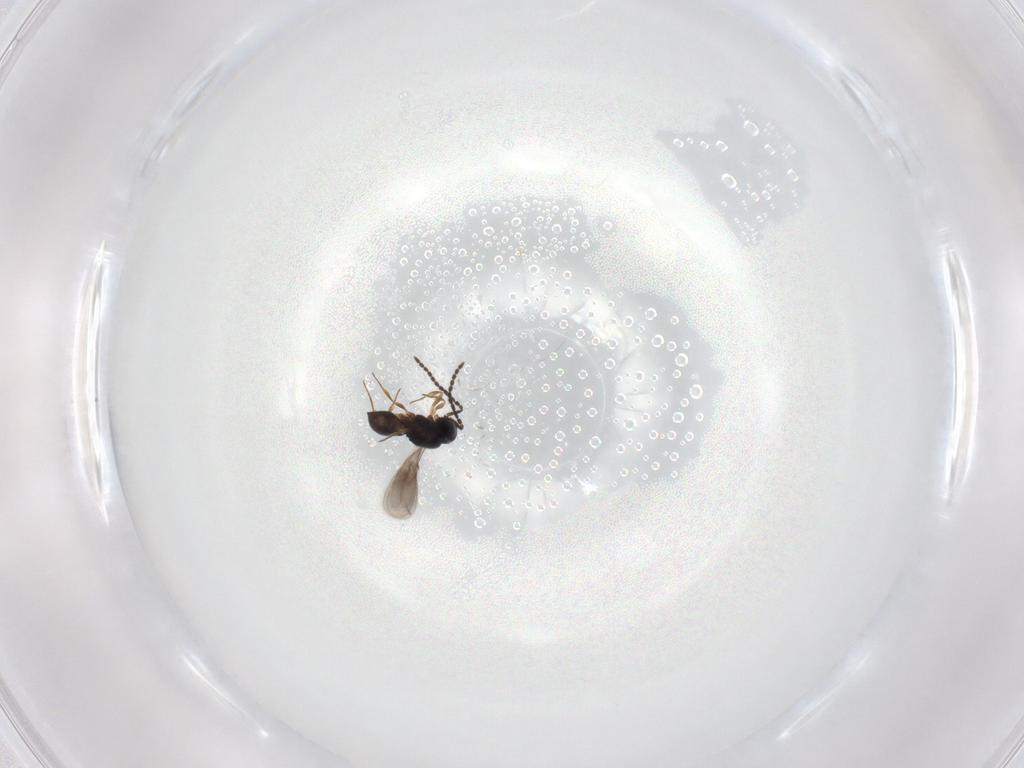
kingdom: Animalia
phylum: Arthropoda
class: Insecta
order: Hymenoptera
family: Scelionidae
